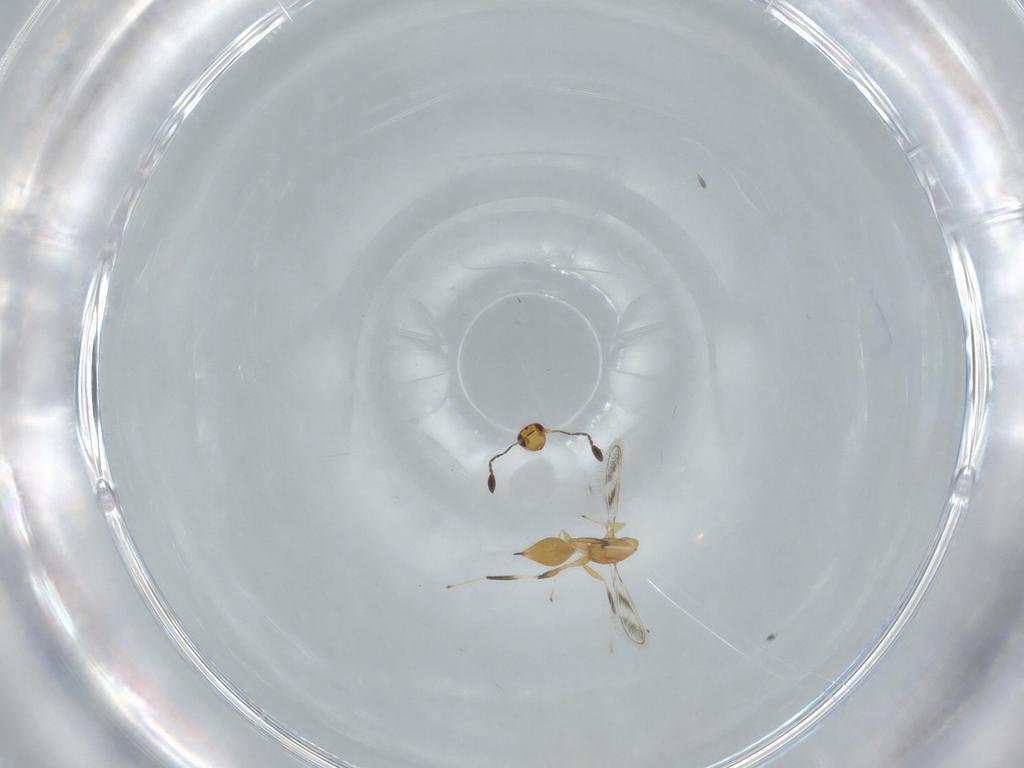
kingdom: Animalia
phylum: Arthropoda
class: Insecta
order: Hymenoptera
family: Mymaridae
